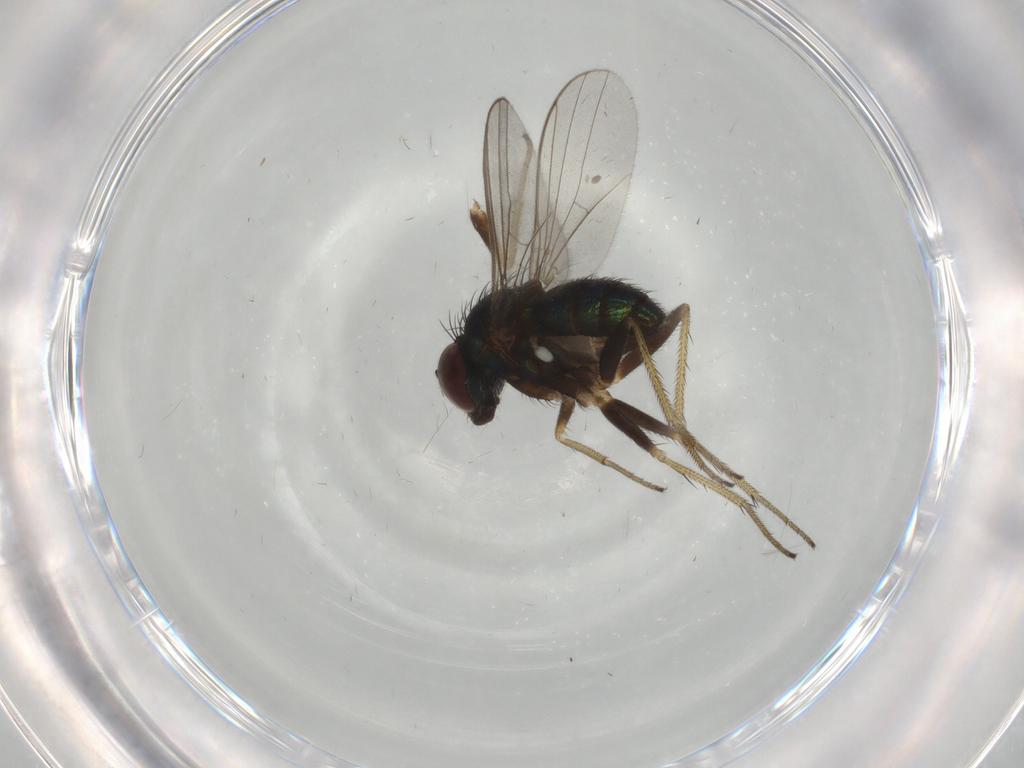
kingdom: Animalia
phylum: Arthropoda
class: Insecta
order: Diptera
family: Dolichopodidae
